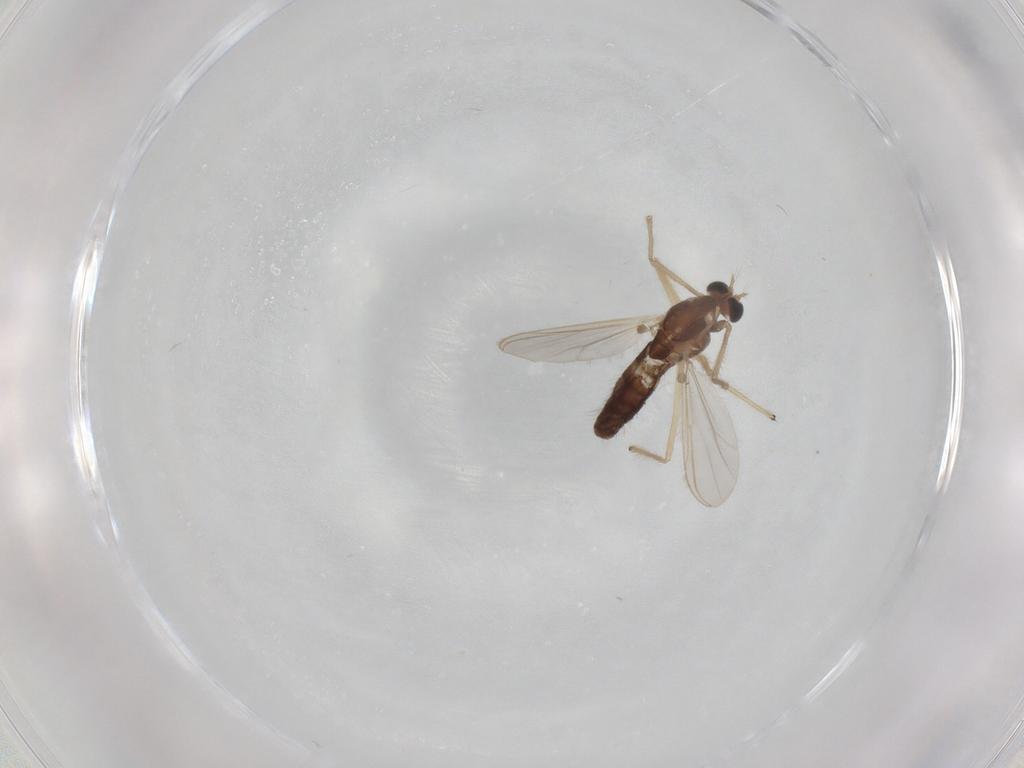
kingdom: Animalia
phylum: Arthropoda
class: Insecta
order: Diptera
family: Chironomidae
